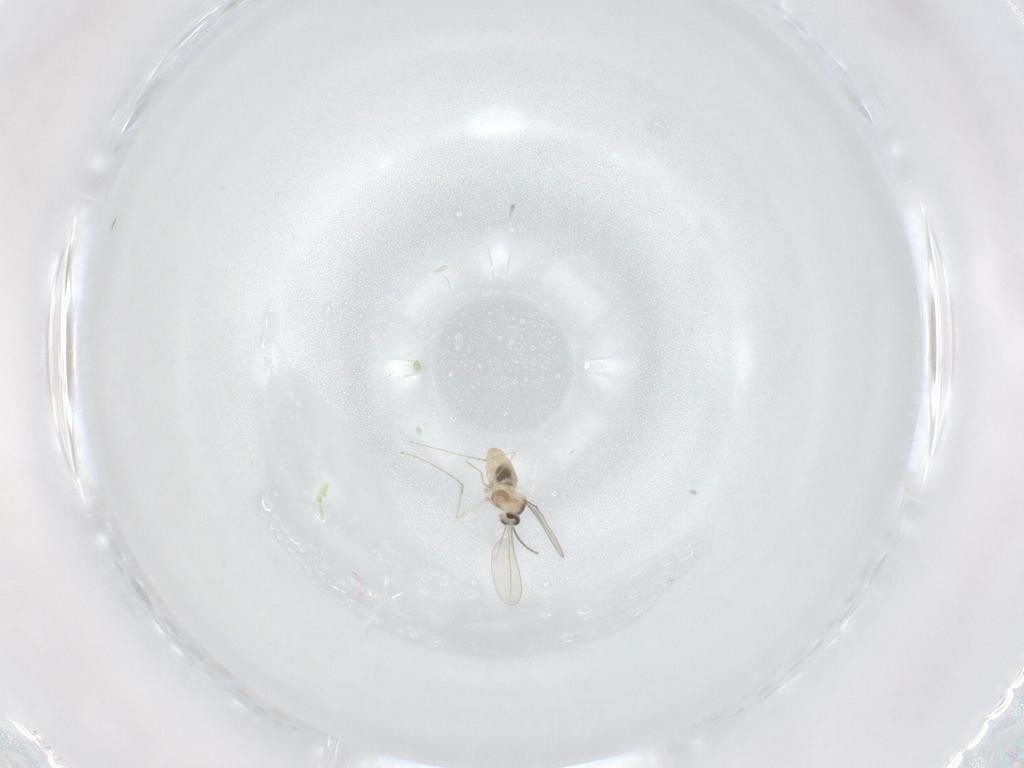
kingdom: Animalia
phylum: Arthropoda
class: Insecta
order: Diptera
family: Cecidomyiidae
